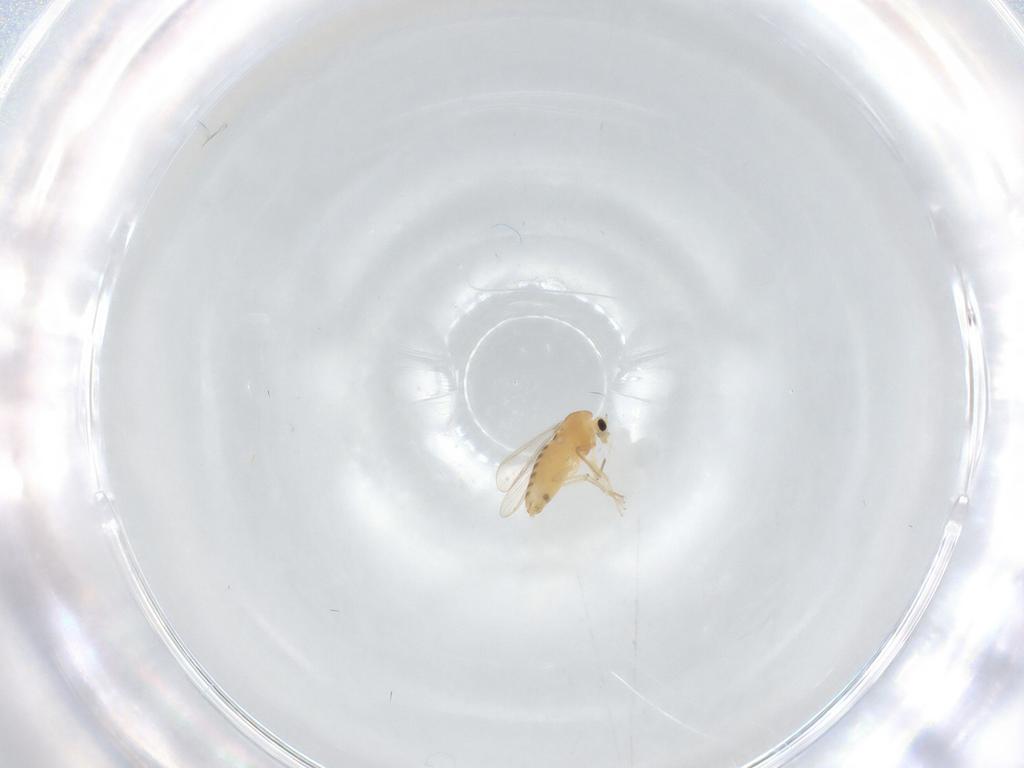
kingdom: Animalia
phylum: Arthropoda
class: Insecta
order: Diptera
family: Chironomidae
